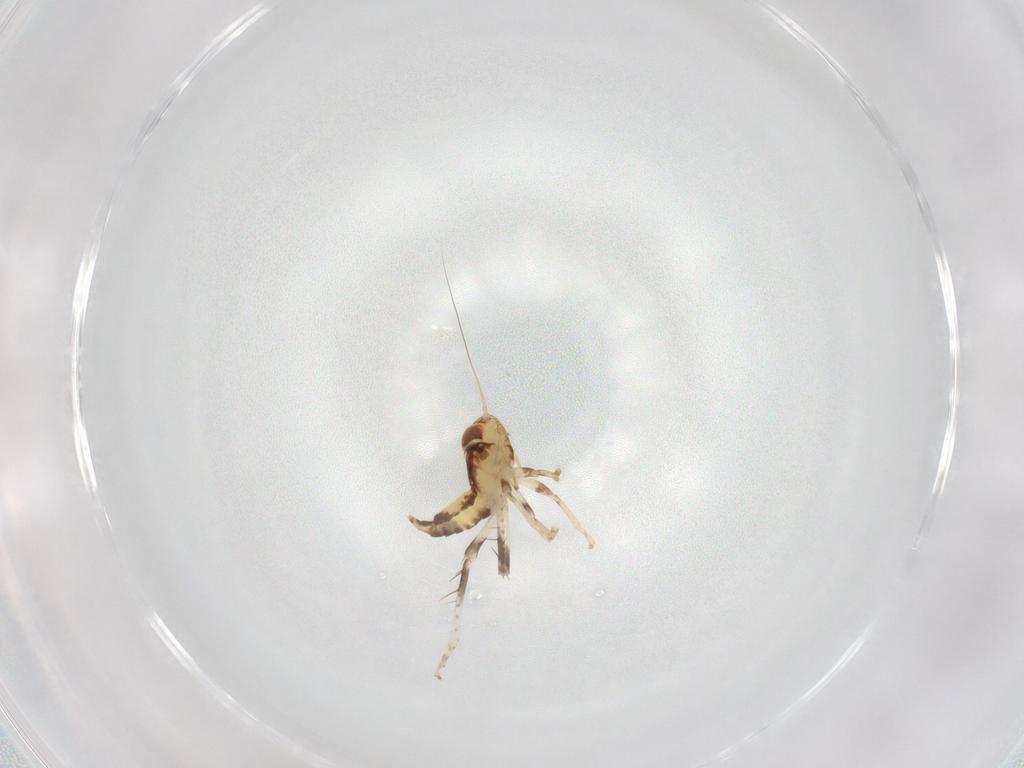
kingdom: Animalia
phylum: Arthropoda
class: Insecta
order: Hemiptera
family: Cicadellidae
